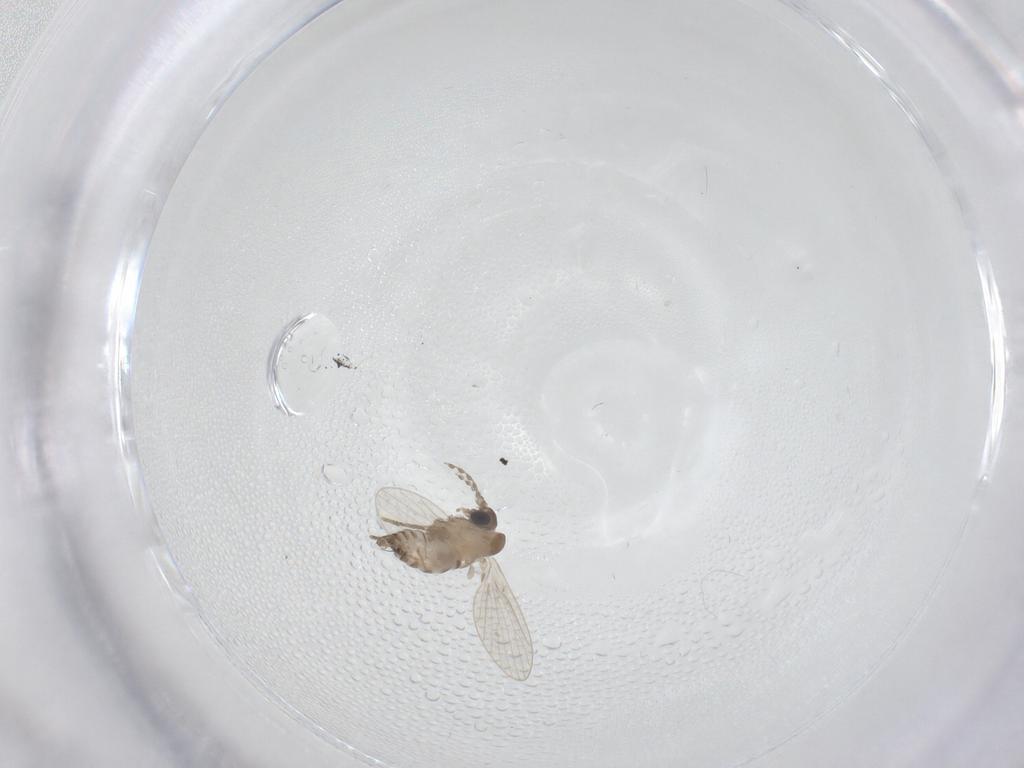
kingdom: Animalia
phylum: Arthropoda
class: Insecta
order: Diptera
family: Psychodidae
